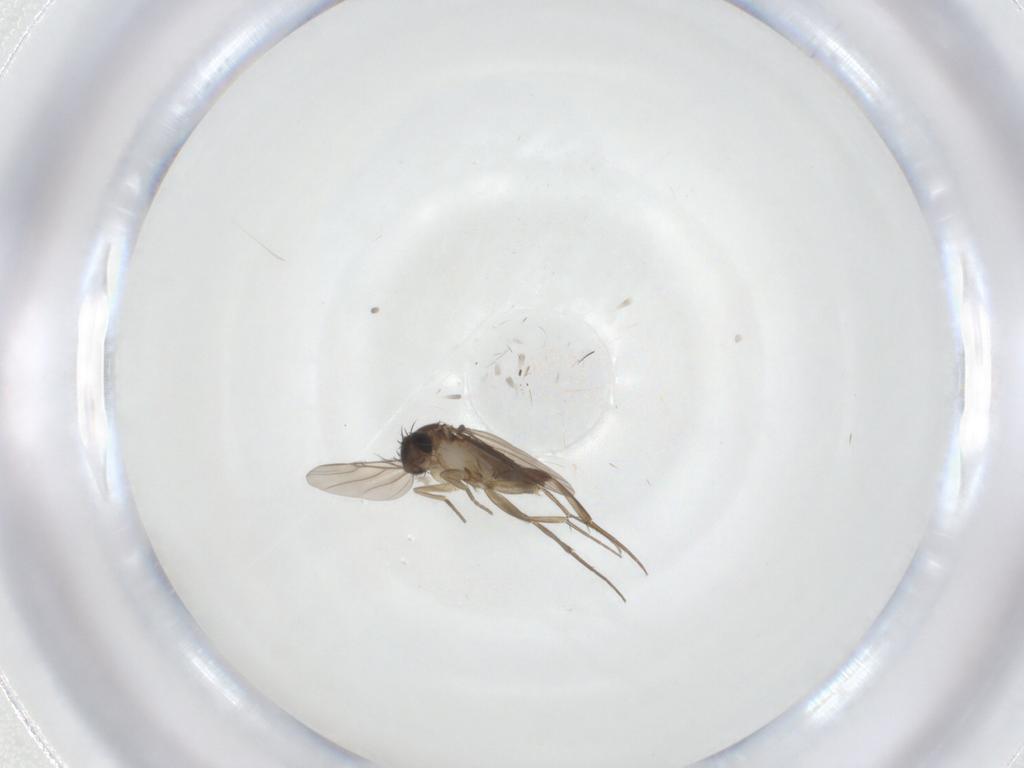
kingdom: Animalia
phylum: Arthropoda
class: Insecta
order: Diptera
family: Phoridae
